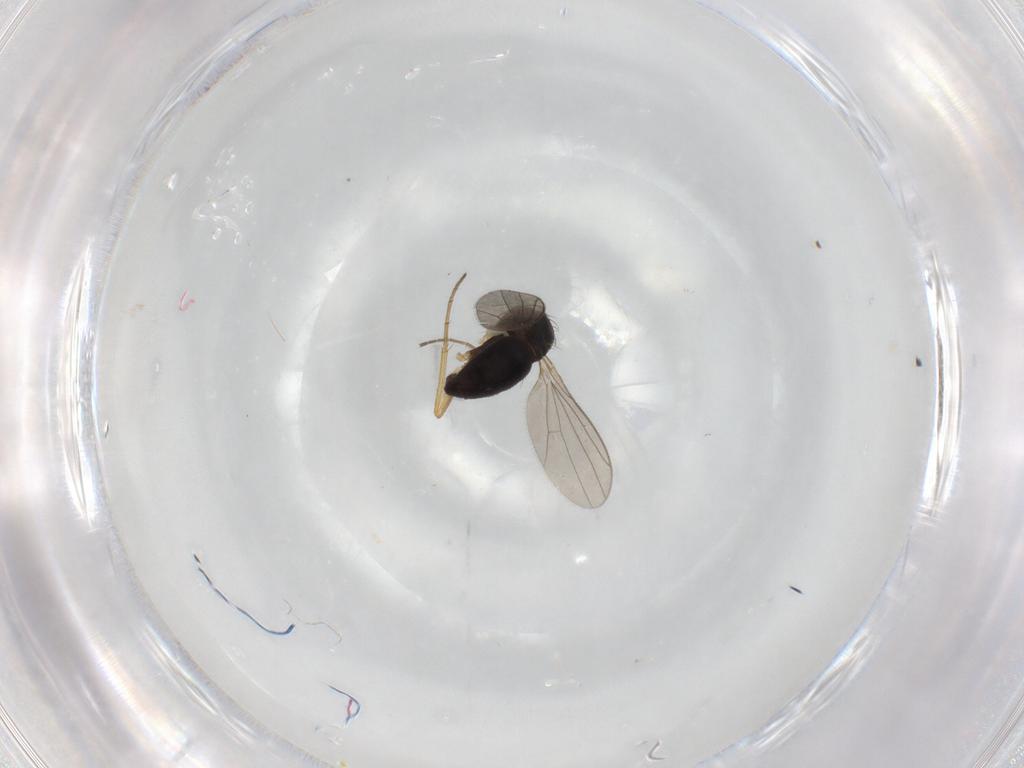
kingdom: Animalia
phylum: Arthropoda
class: Insecta
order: Diptera
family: Dolichopodidae
